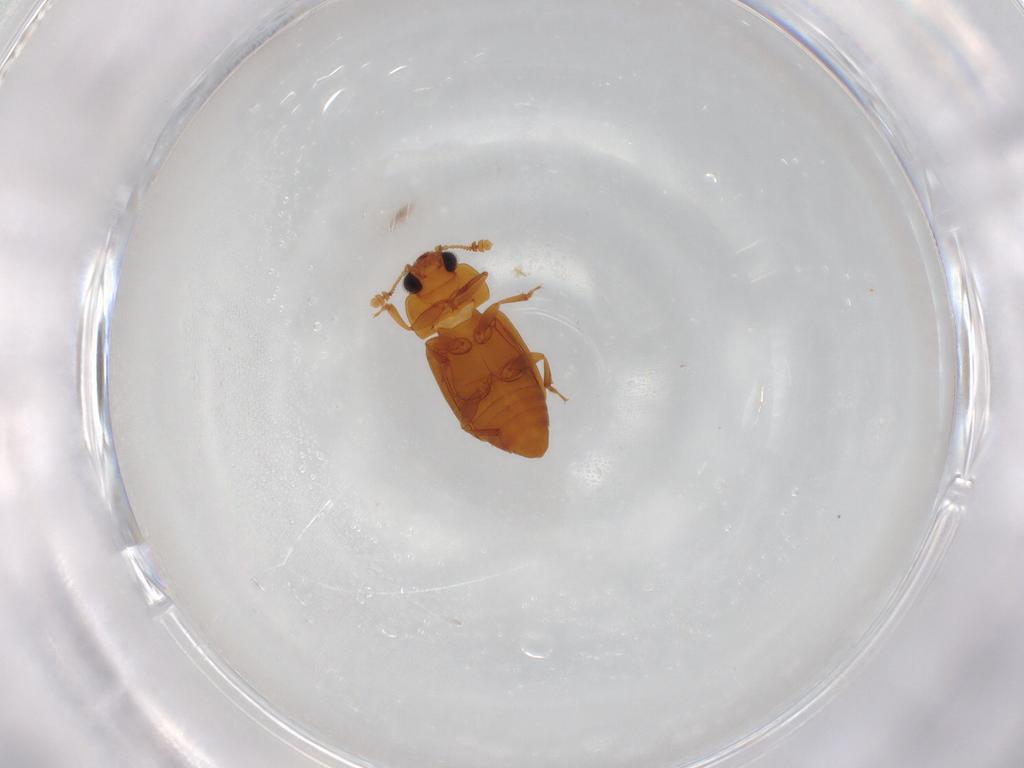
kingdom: Animalia
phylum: Arthropoda
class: Insecta
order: Coleoptera
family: Nitidulidae
